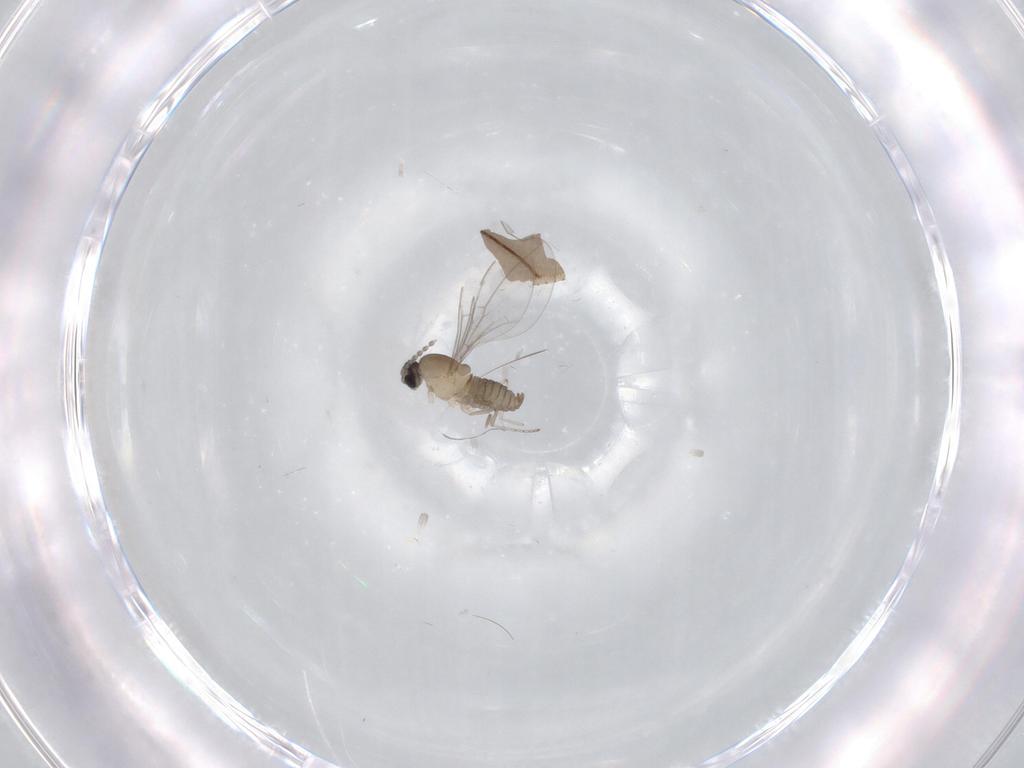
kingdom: Animalia
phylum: Arthropoda
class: Insecta
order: Diptera
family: Cecidomyiidae
